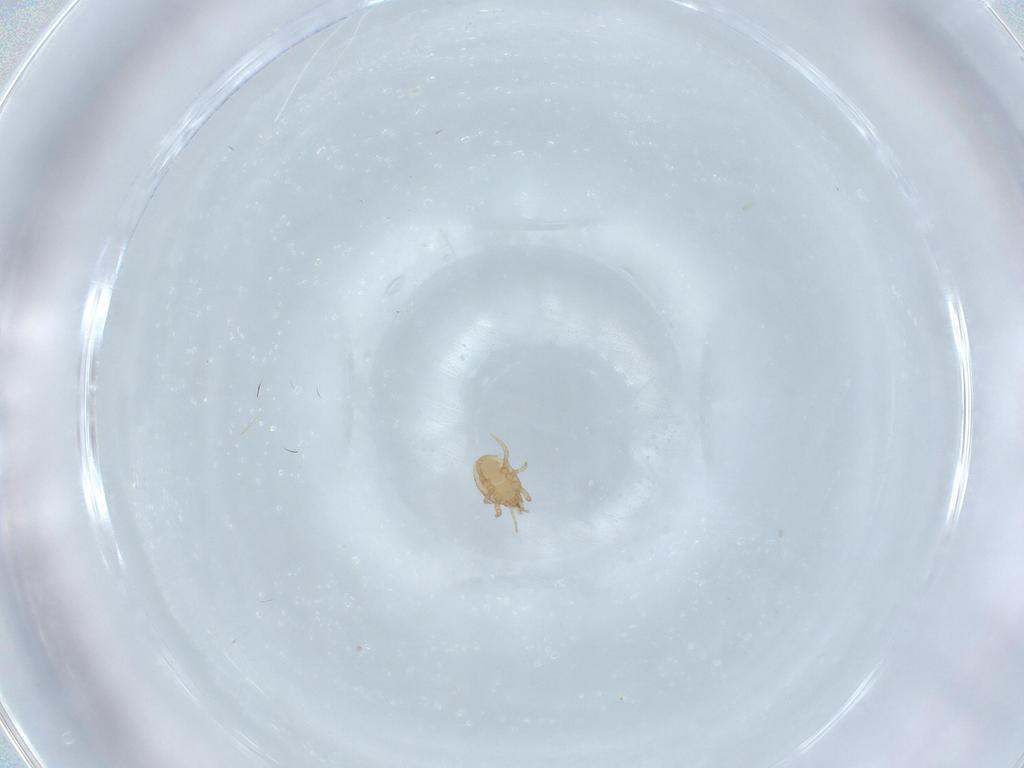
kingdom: Animalia
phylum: Arthropoda
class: Arachnida
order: Mesostigmata
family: Macrochelidae
